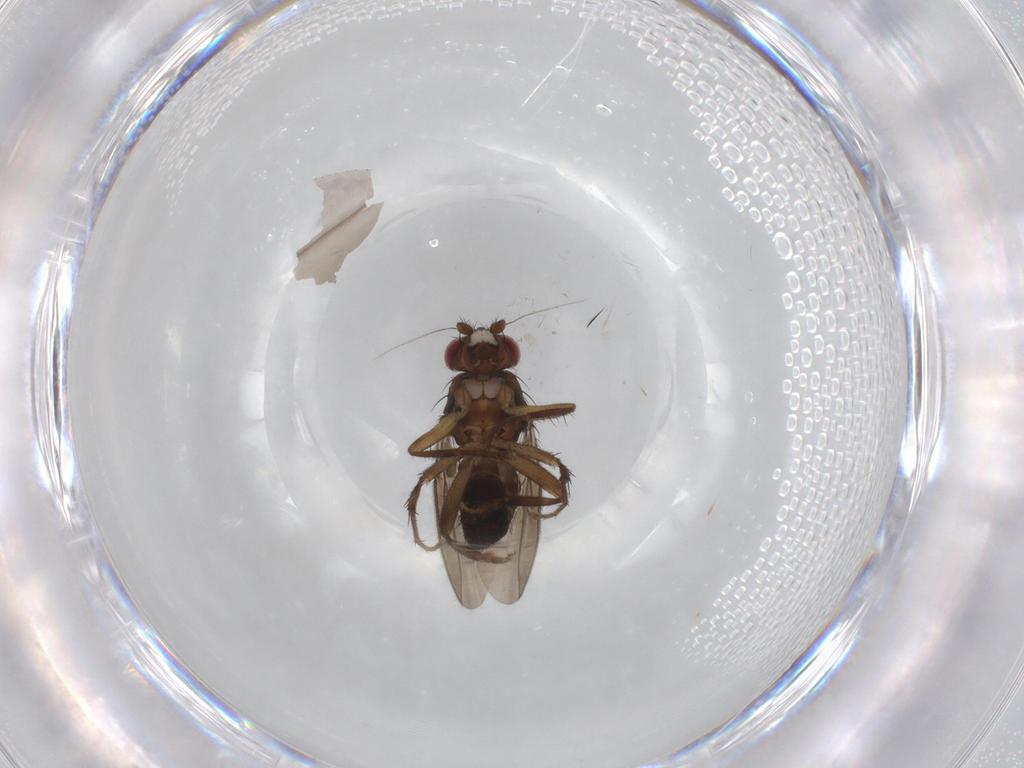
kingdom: Animalia
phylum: Arthropoda
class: Insecta
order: Diptera
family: Sphaeroceridae
